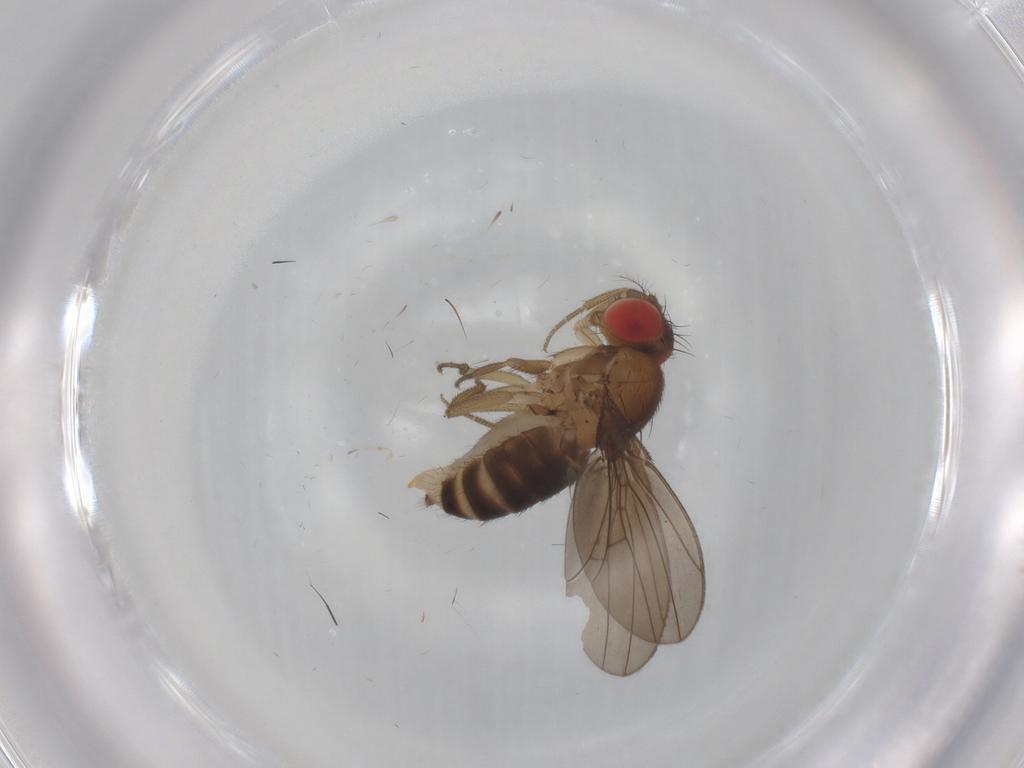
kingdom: Animalia
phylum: Arthropoda
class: Insecta
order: Diptera
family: Drosophilidae
